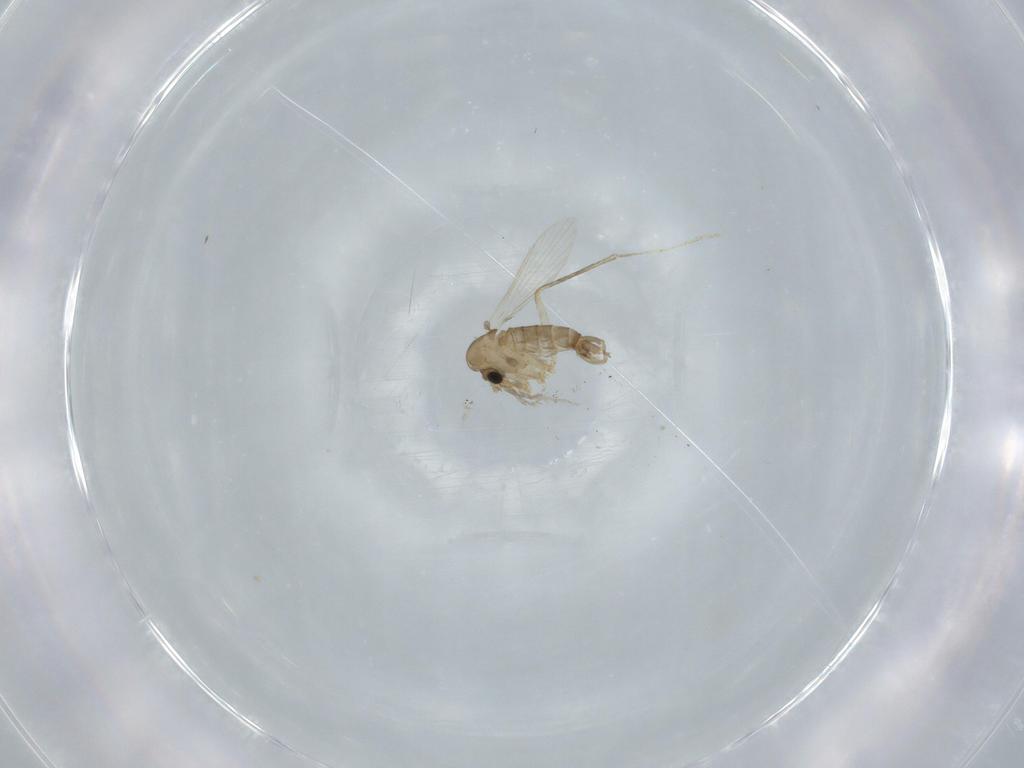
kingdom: Animalia
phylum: Arthropoda
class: Insecta
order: Diptera
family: Psychodidae
